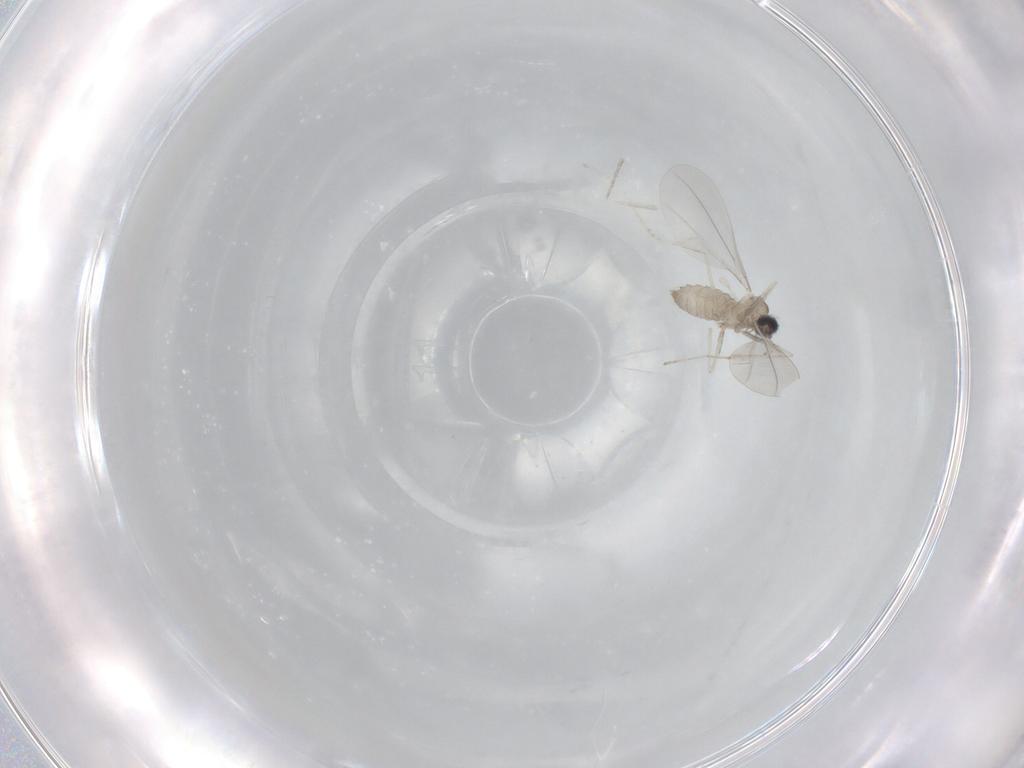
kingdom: Animalia
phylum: Arthropoda
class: Insecta
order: Diptera
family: Cecidomyiidae
